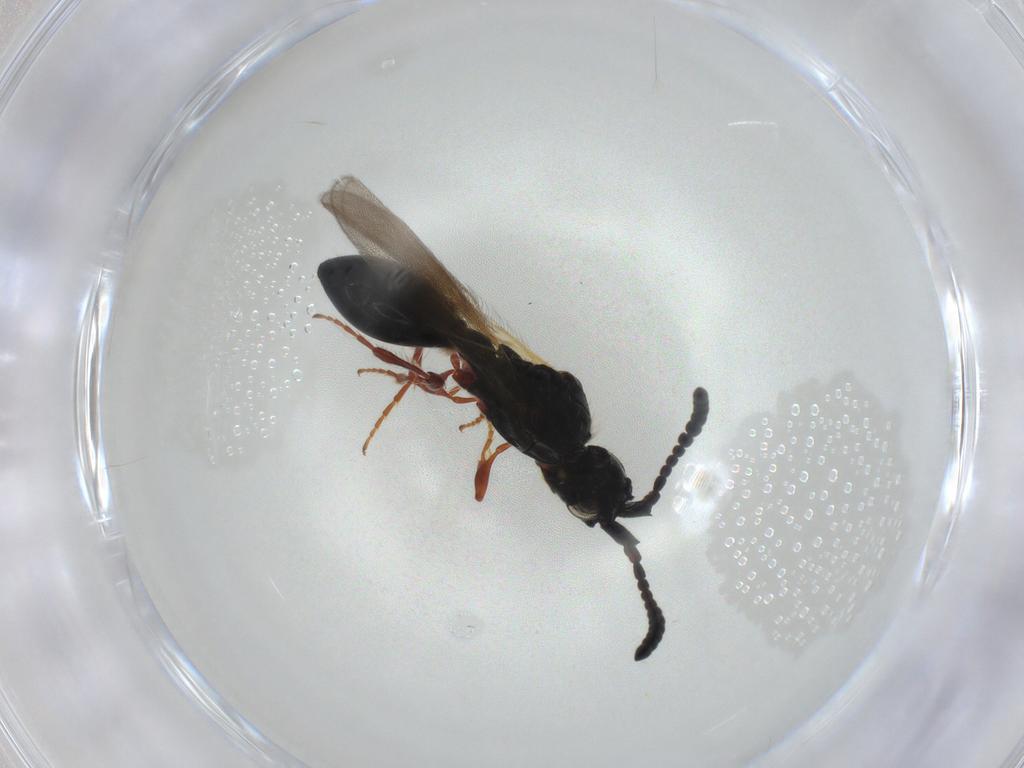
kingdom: Animalia
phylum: Arthropoda
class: Insecta
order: Hymenoptera
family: Diapriidae
